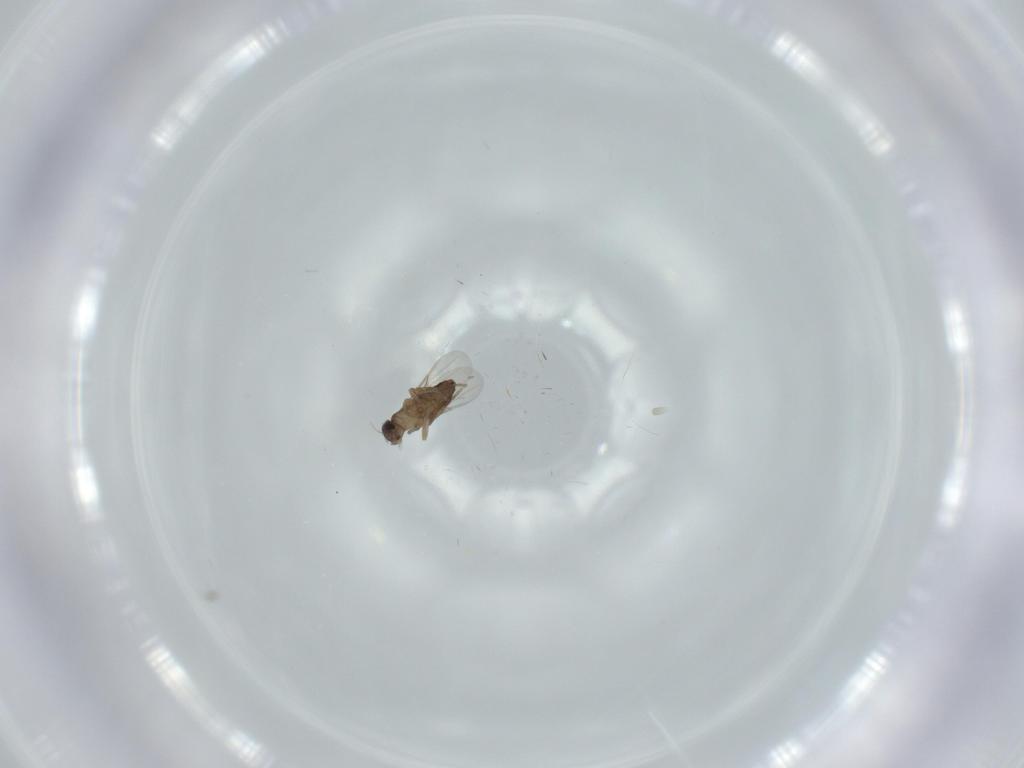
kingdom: Animalia
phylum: Arthropoda
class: Insecta
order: Diptera
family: Phoridae
